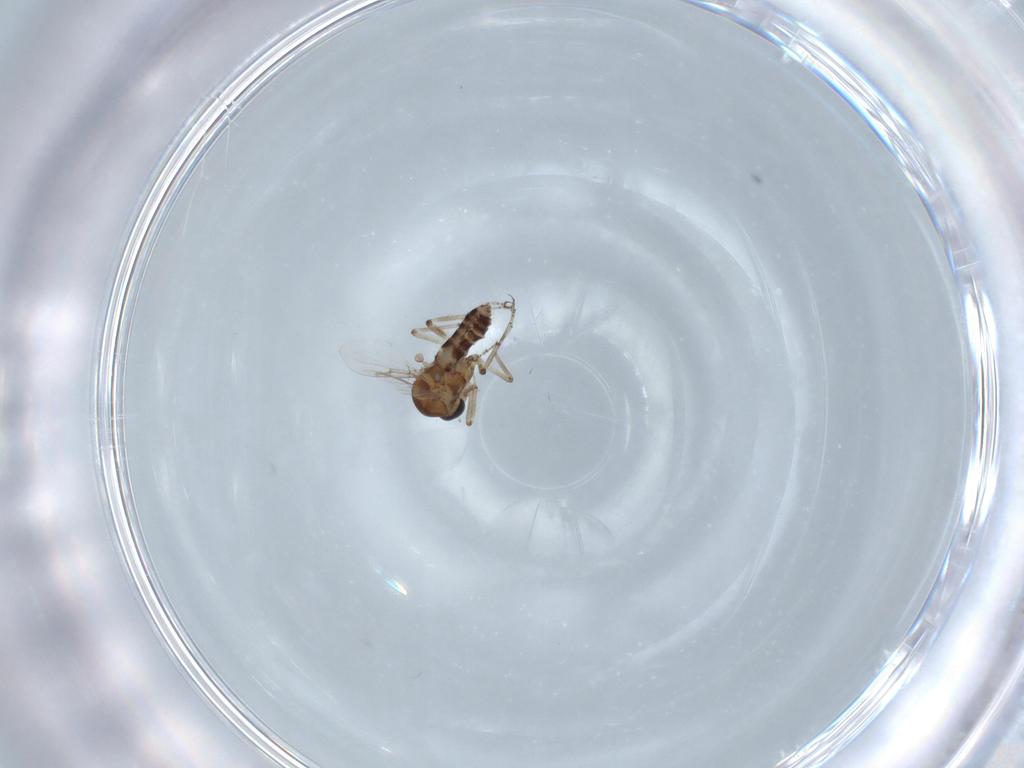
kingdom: Animalia
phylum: Arthropoda
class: Insecta
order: Diptera
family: Ceratopogonidae
